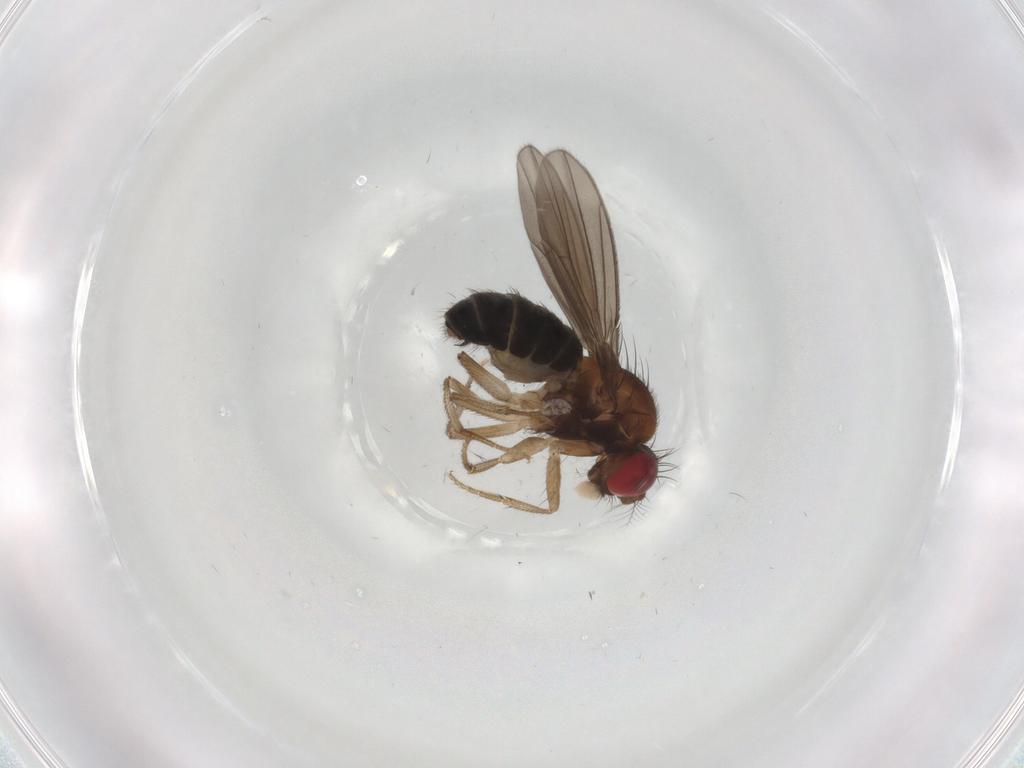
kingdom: Animalia
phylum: Arthropoda
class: Insecta
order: Diptera
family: Drosophilidae
